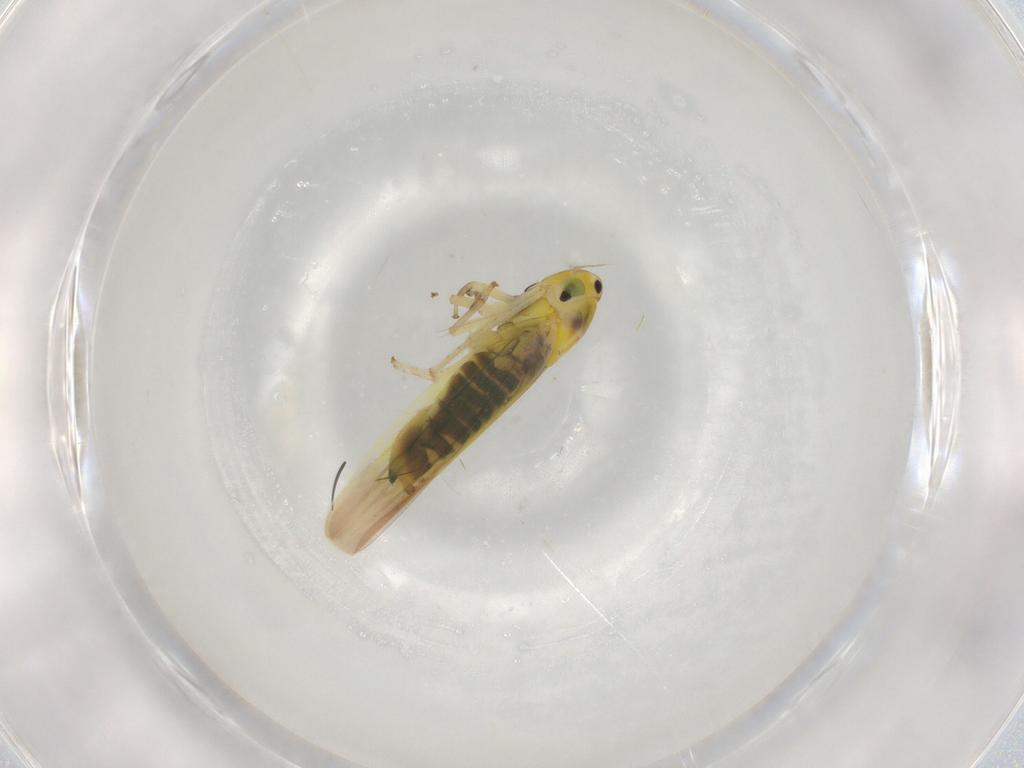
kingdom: Animalia
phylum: Arthropoda
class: Insecta
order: Hemiptera
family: Cicadellidae
